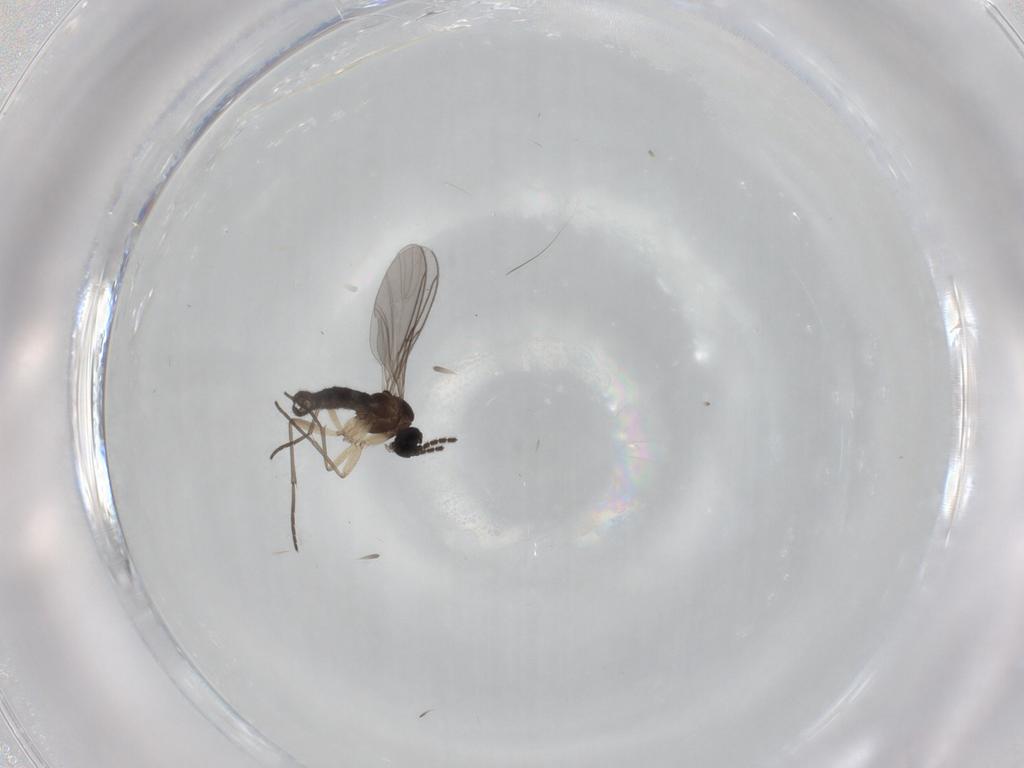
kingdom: Animalia
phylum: Arthropoda
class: Insecta
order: Diptera
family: Sciaridae
